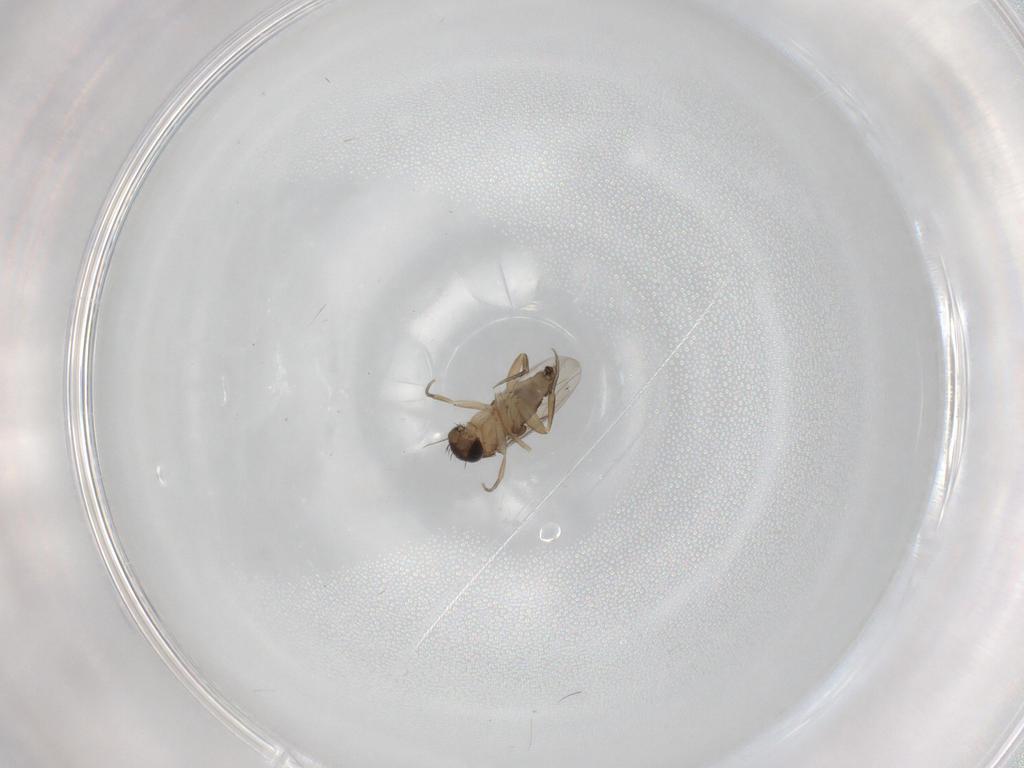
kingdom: Animalia
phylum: Arthropoda
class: Insecta
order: Diptera
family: Phoridae
